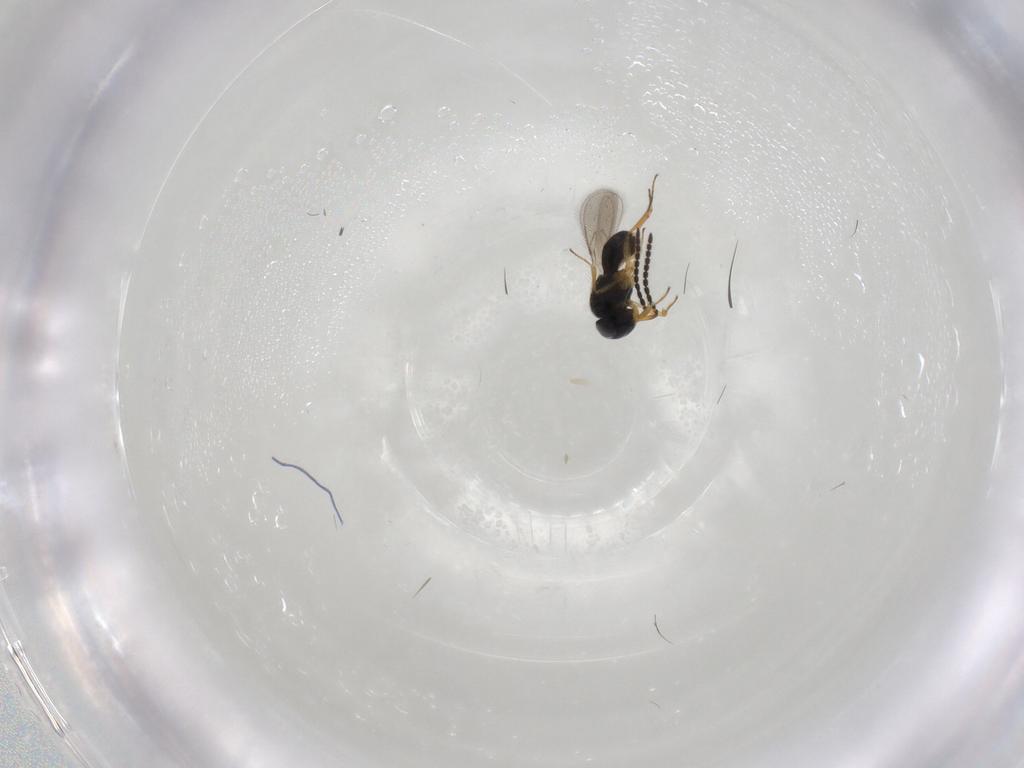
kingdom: Animalia
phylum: Arthropoda
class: Insecta
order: Hymenoptera
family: Scelionidae
